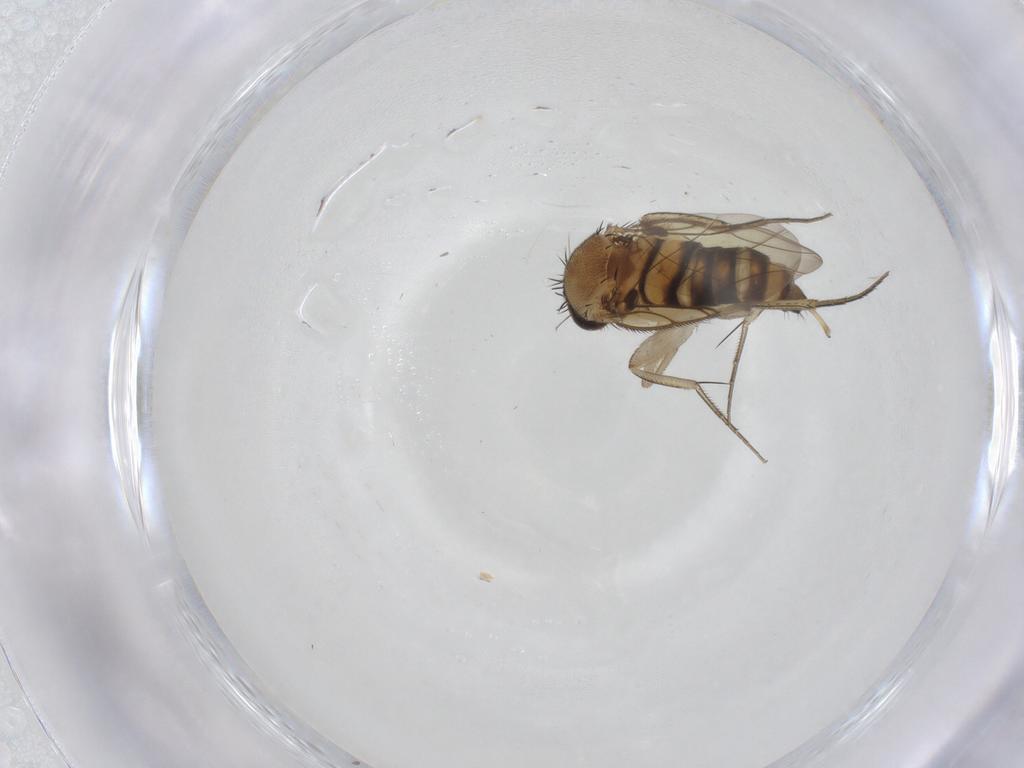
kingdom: Animalia
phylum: Arthropoda
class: Insecta
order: Diptera
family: Phoridae
